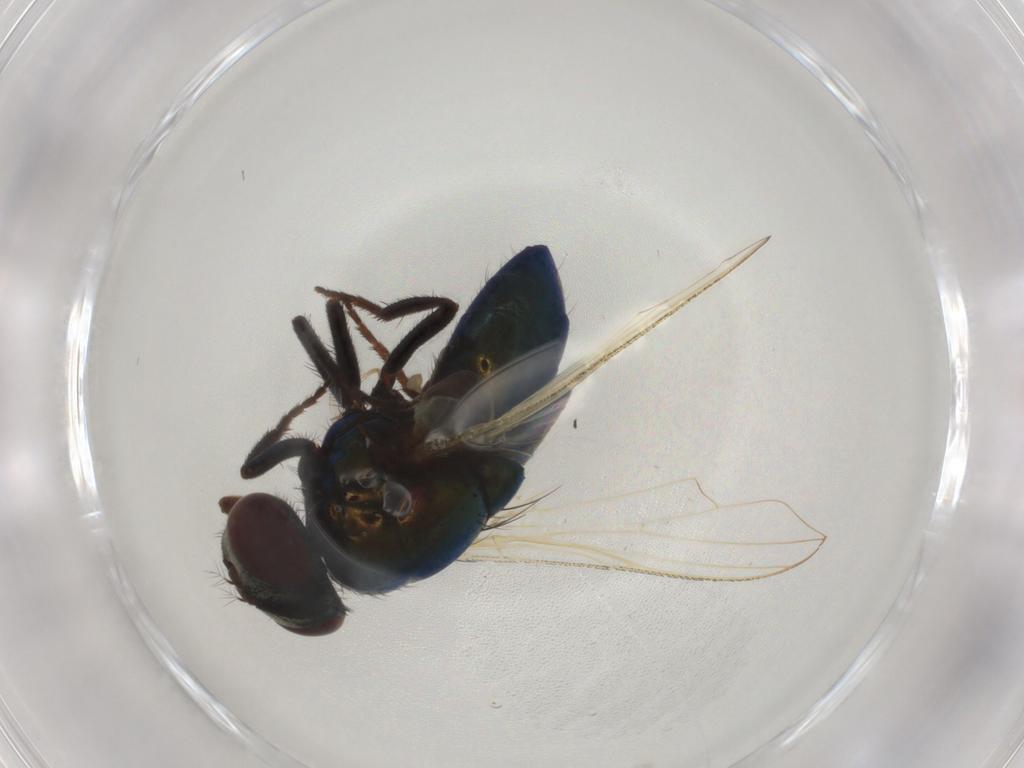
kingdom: Animalia
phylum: Arthropoda
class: Insecta
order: Diptera
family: Muscidae
